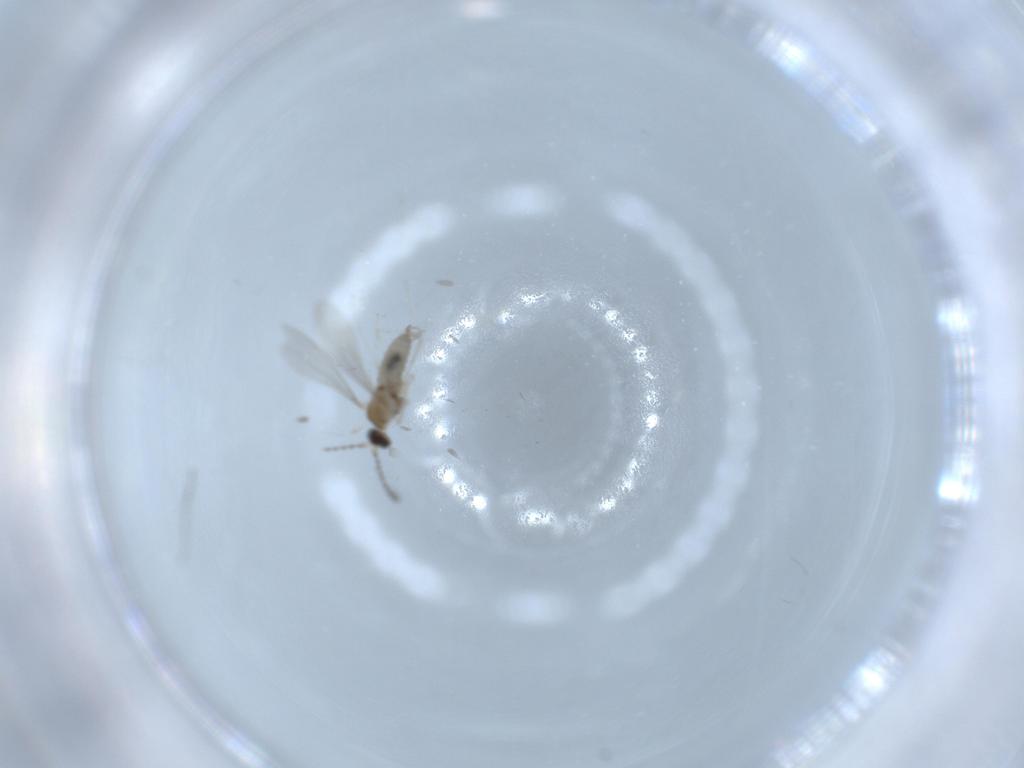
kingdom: Animalia
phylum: Arthropoda
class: Insecta
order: Diptera
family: Cecidomyiidae
